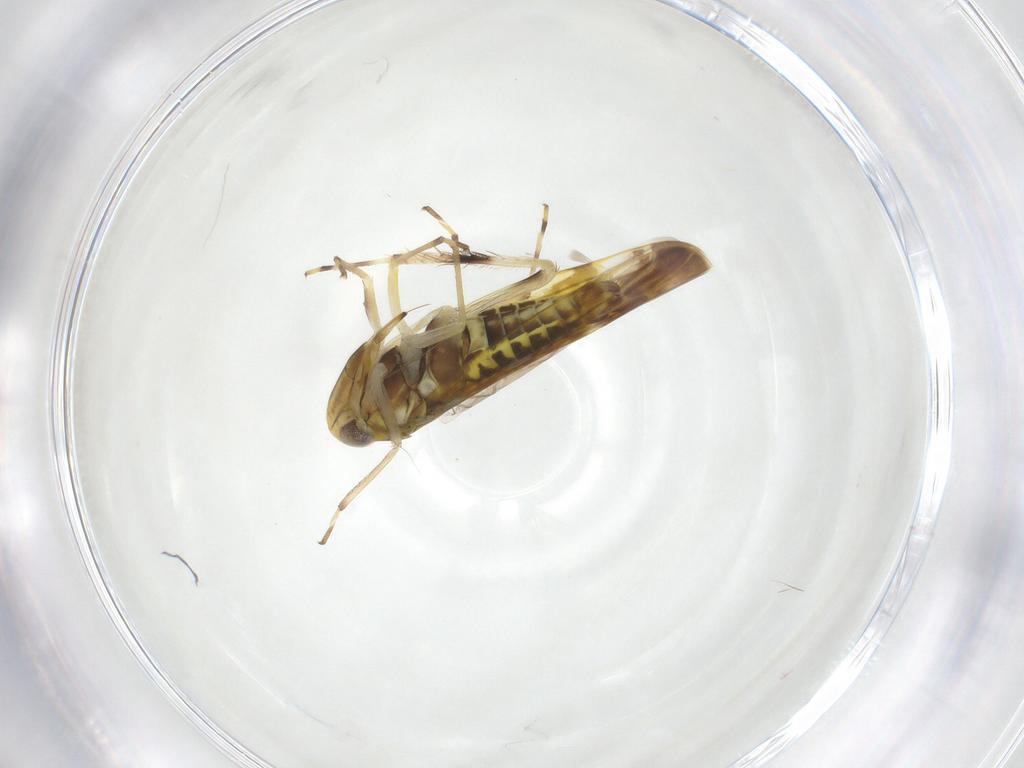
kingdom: Animalia
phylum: Arthropoda
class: Insecta
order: Hemiptera
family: Cicadellidae
